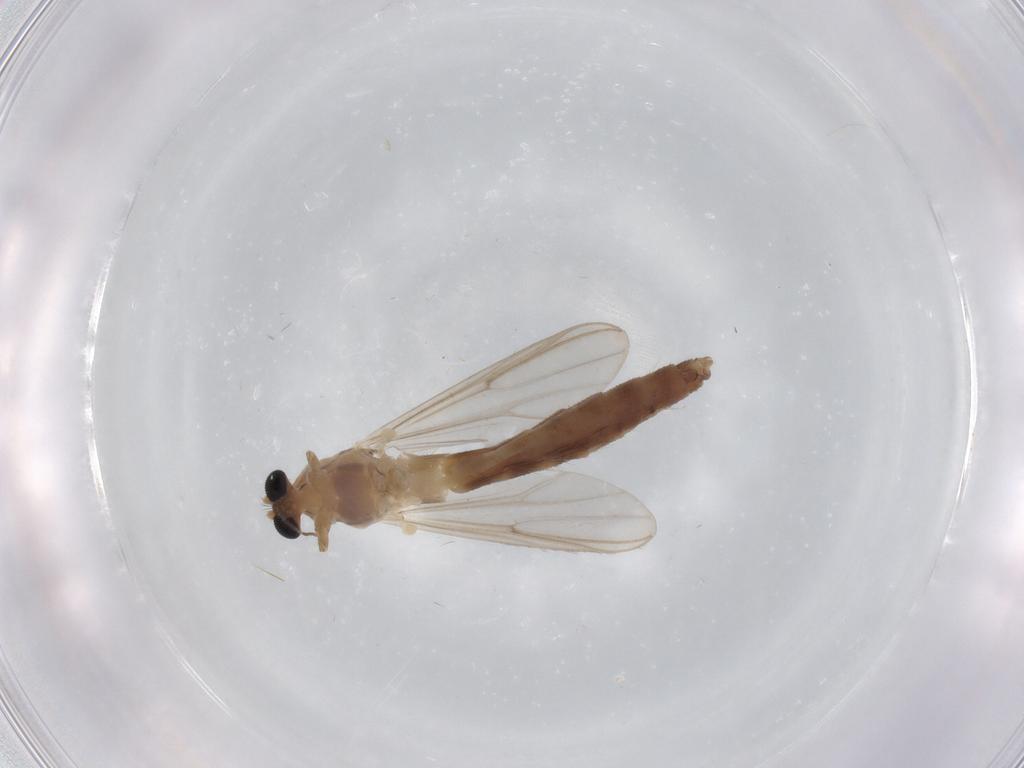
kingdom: Animalia
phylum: Arthropoda
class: Insecta
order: Diptera
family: Chironomidae
